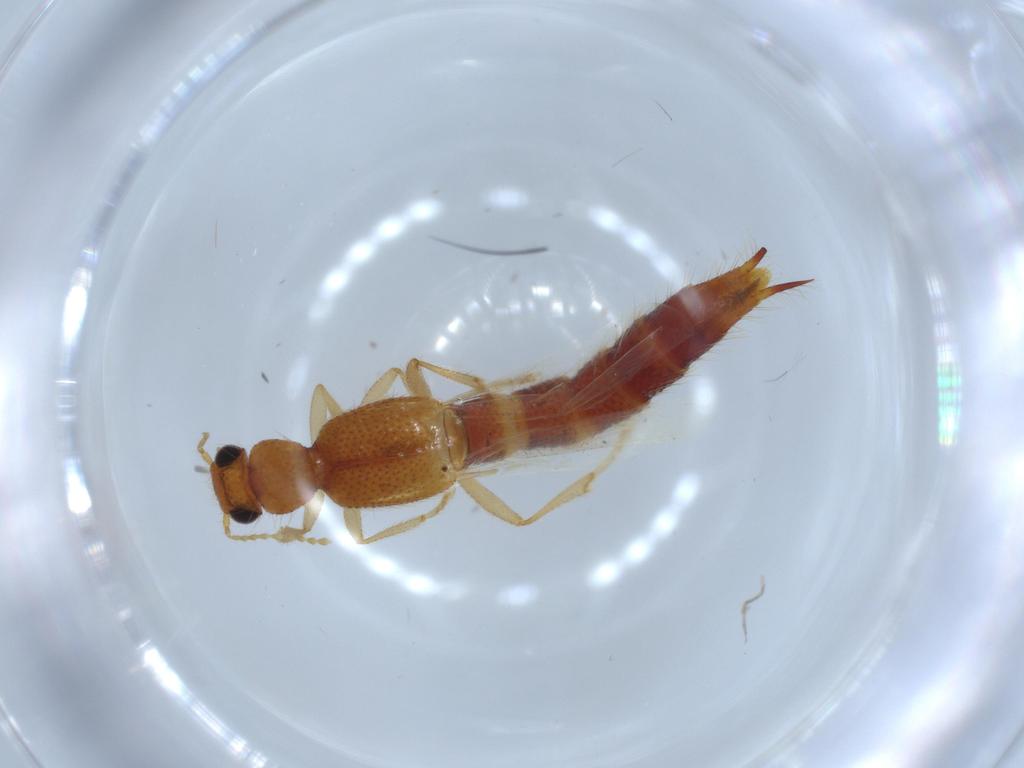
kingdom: Animalia
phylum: Arthropoda
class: Insecta
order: Coleoptera
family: Staphylinidae
